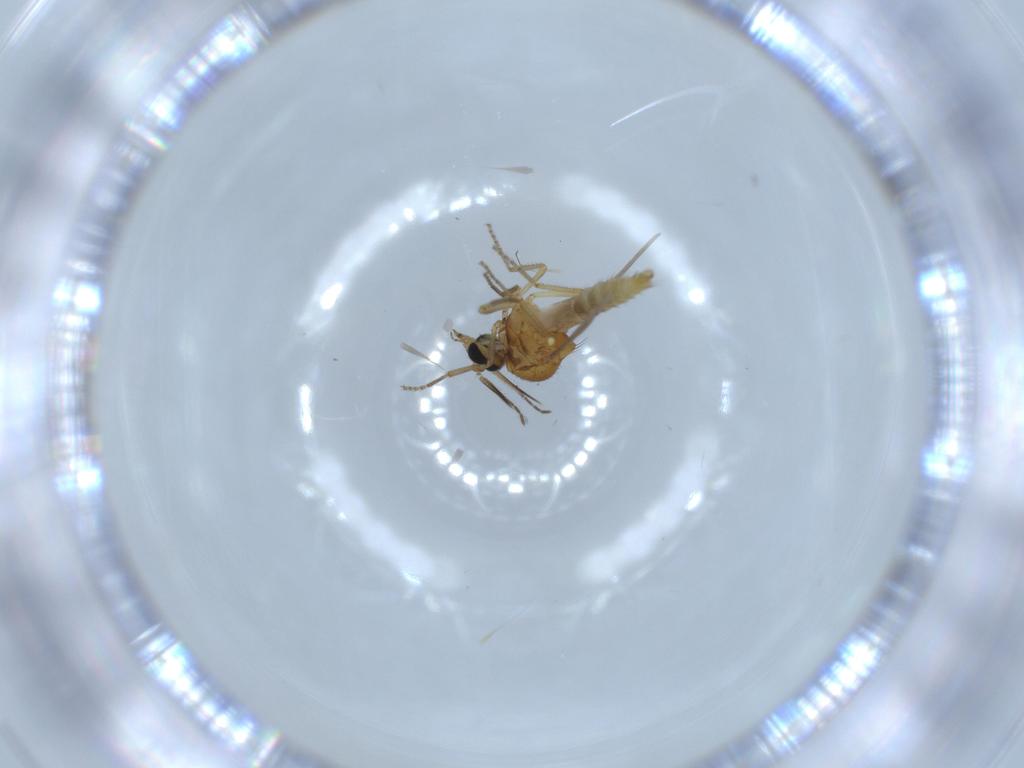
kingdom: Animalia
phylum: Arthropoda
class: Insecta
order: Diptera
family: Ceratopogonidae
